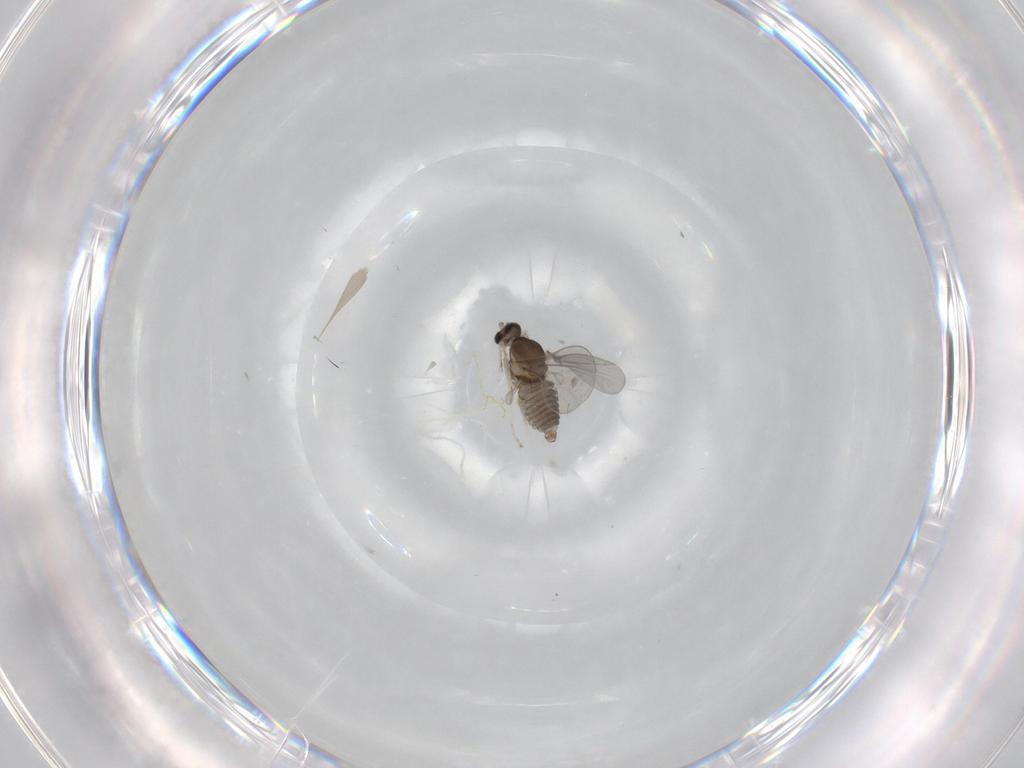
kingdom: Animalia
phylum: Arthropoda
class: Insecta
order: Diptera
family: Cecidomyiidae
